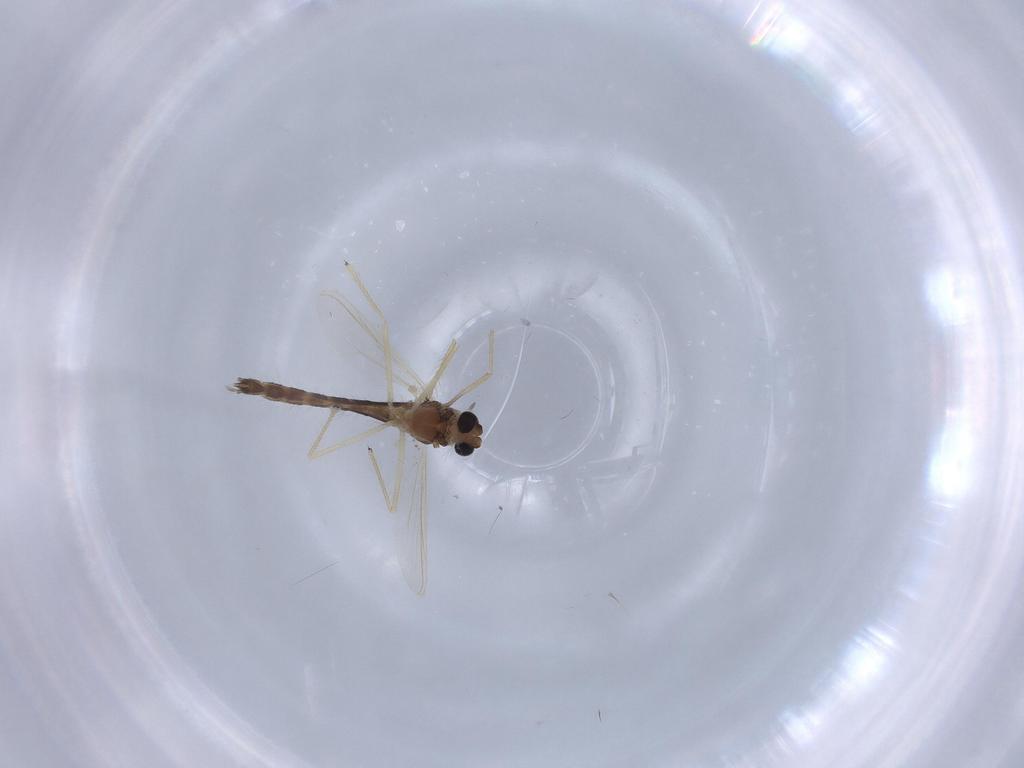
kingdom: Animalia
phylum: Arthropoda
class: Insecta
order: Diptera
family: Chironomidae
